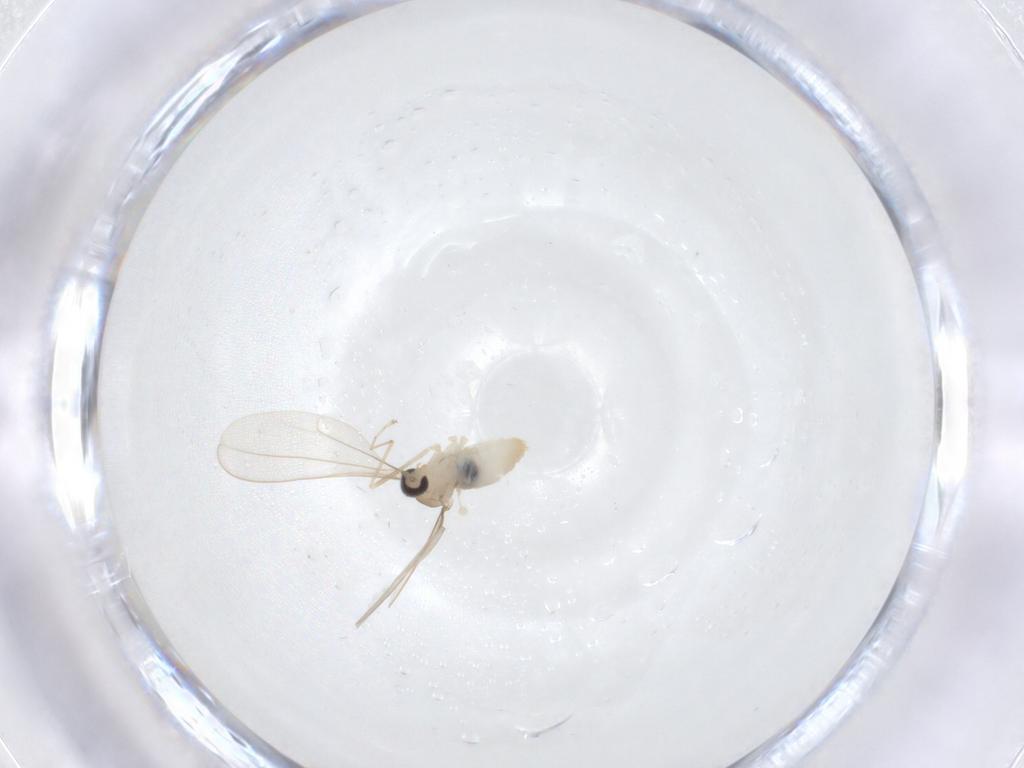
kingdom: Animalia
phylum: Arthropoda
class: Insecta
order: Diptera
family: Cecidomyiidae
